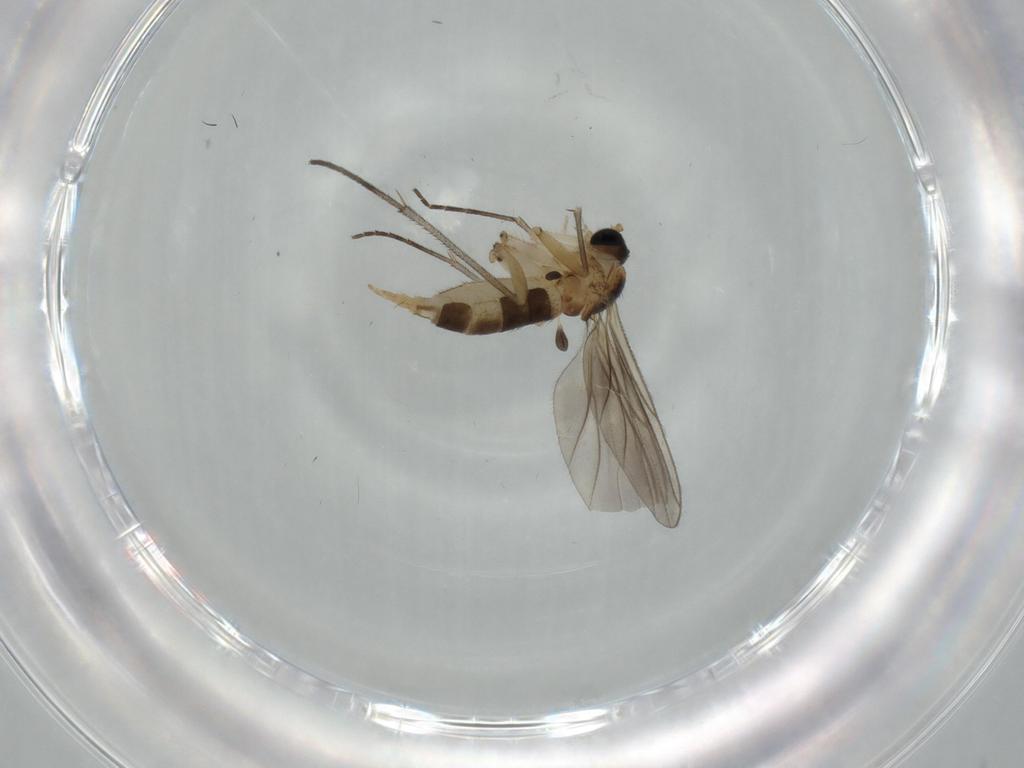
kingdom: Animalia
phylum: Arthropoda
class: Insecta
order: Diptera
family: Sciaridae
